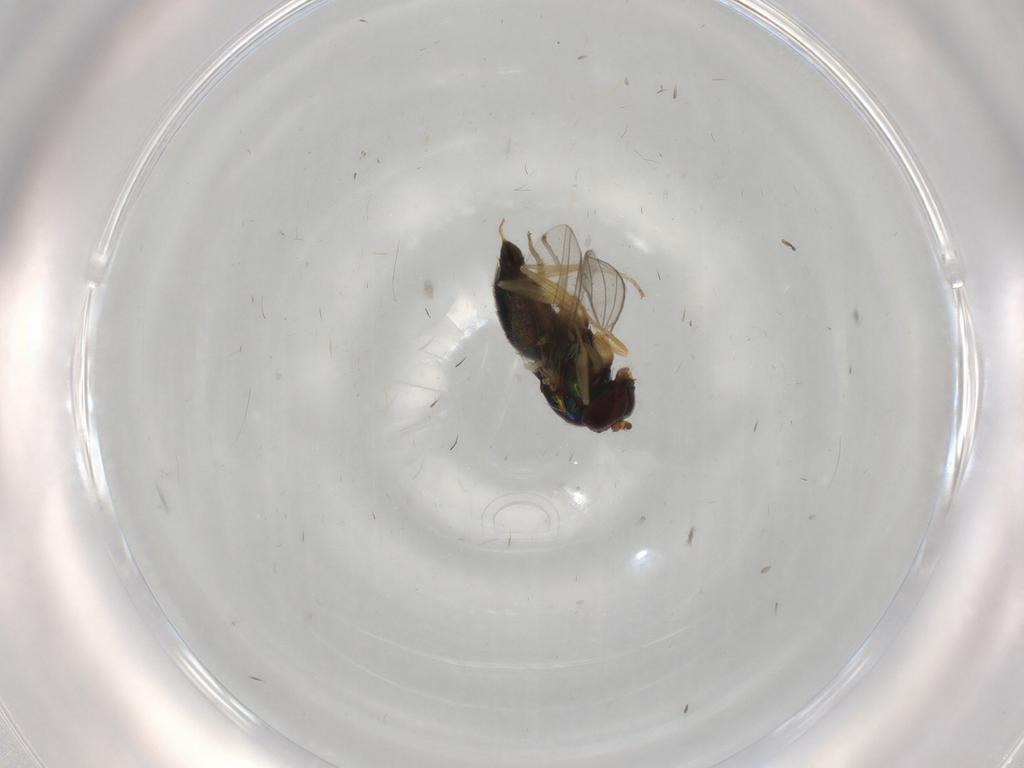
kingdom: Animalia
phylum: Arthropoda
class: Insecta
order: Diptera
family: Dolichopodidae
